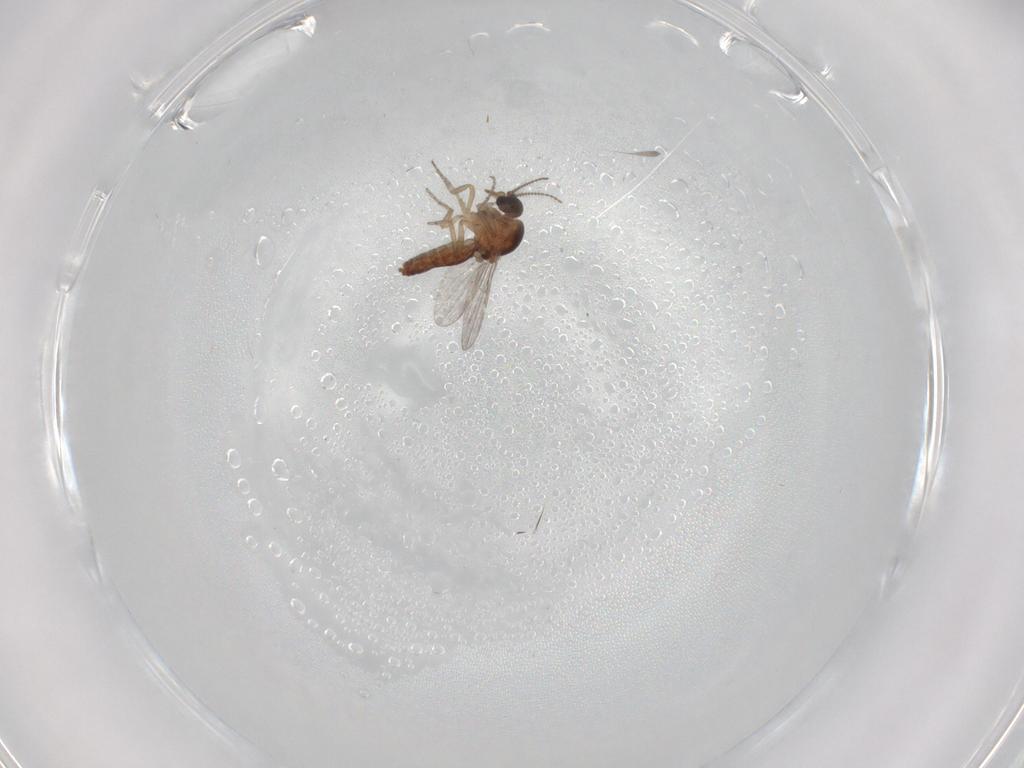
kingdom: Animalia
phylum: Arthropoda
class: Insecta
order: Diptera
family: Ceratopogonidae
